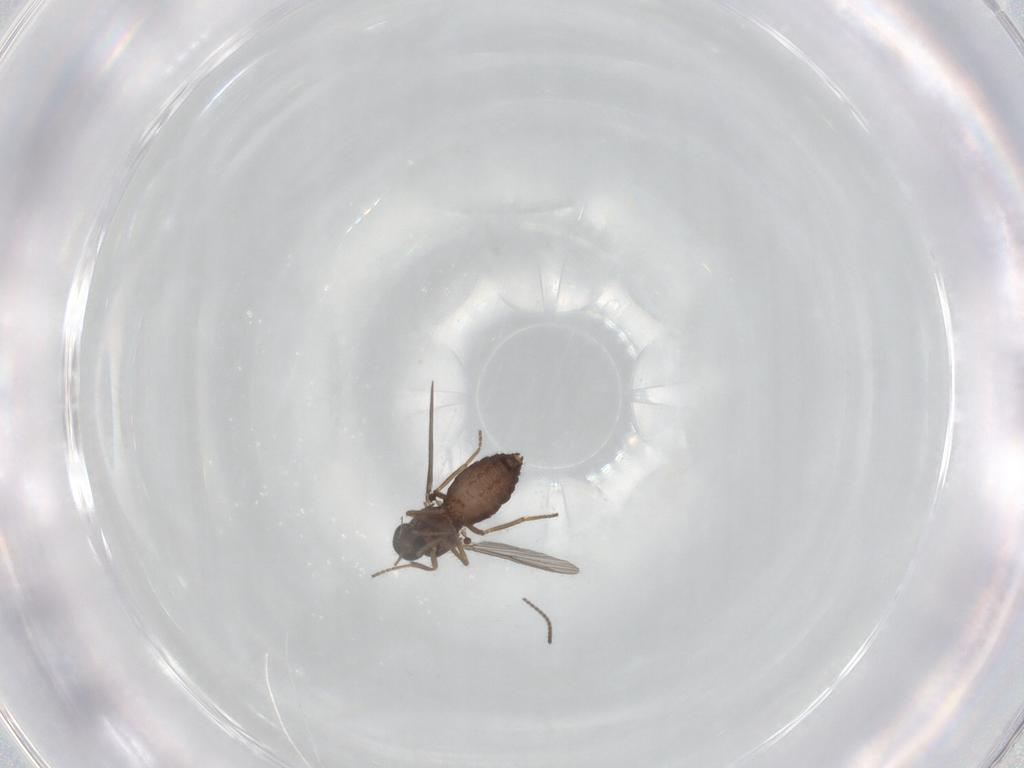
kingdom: Animalia
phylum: Arthropoda
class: Insecta
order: Diptera
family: Ceratopogonidae
